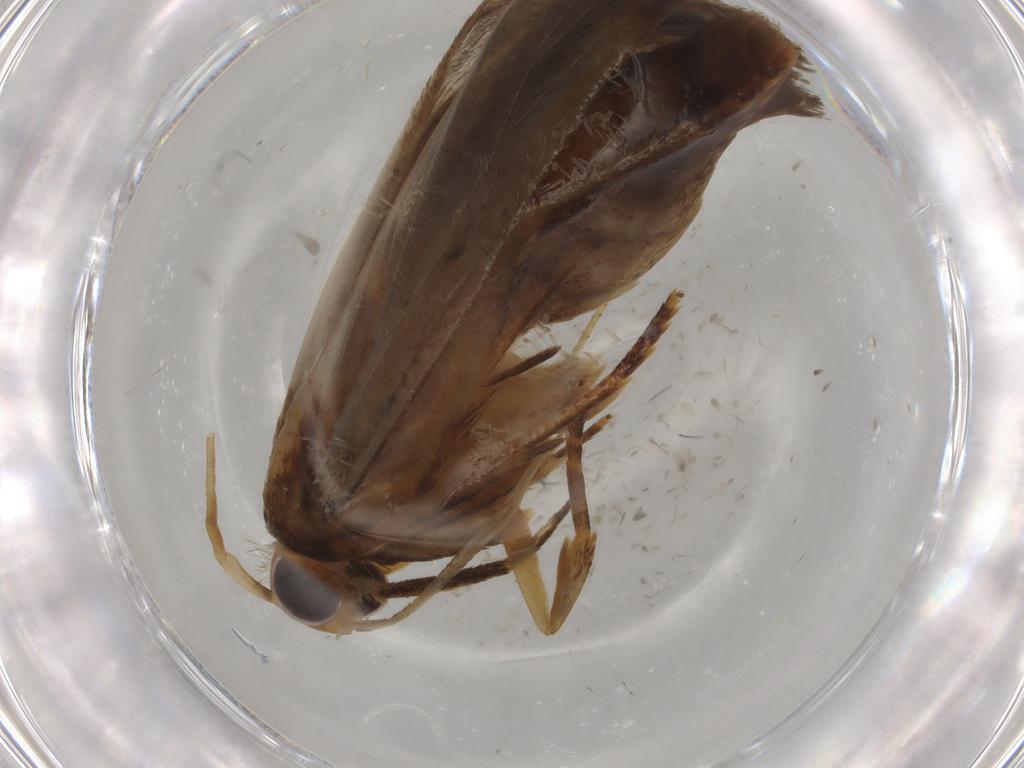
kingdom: Animalia
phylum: Arthropoda
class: Insecta
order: Lepidoptera
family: Autostichidae
